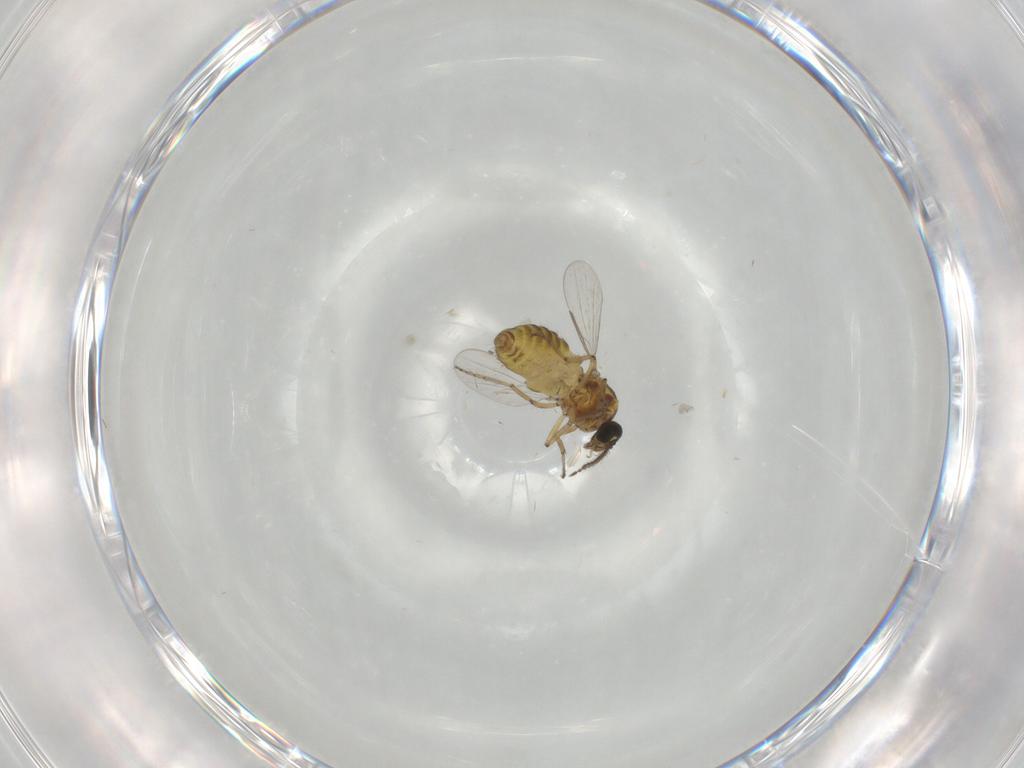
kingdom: Animalia
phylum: Arthropoda
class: Insecta
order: Diptera
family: Ceratopogonidae
